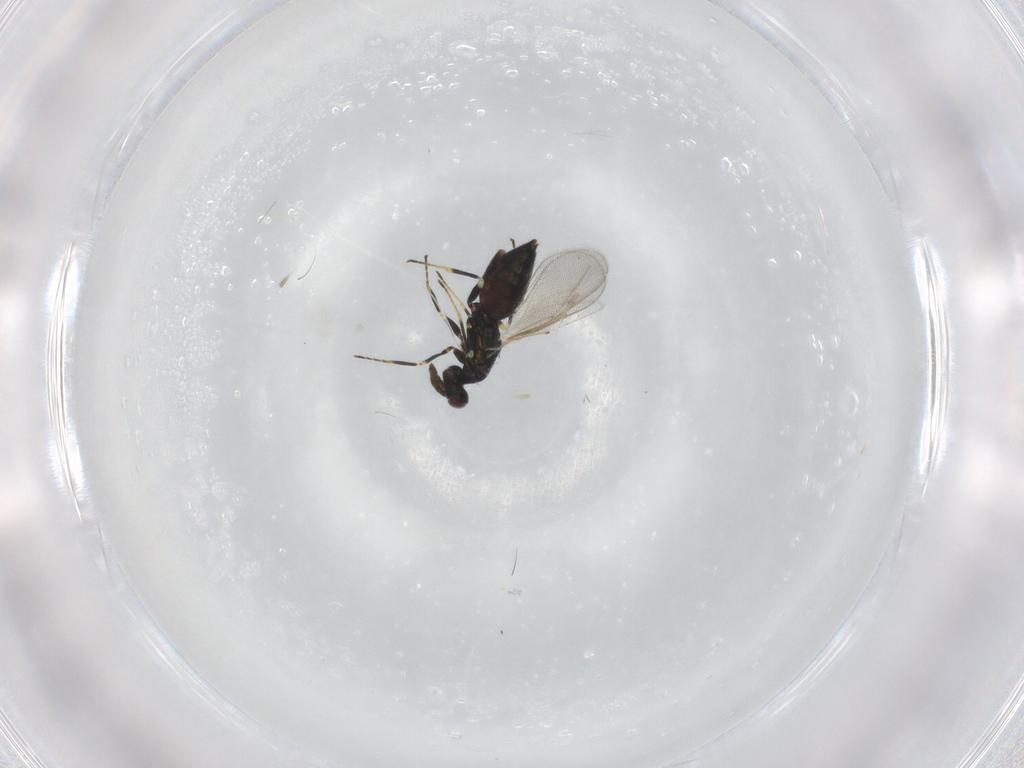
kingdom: Animalia
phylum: Arthropoda
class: Insecta
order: Hymenoptera
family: Eulophidae
